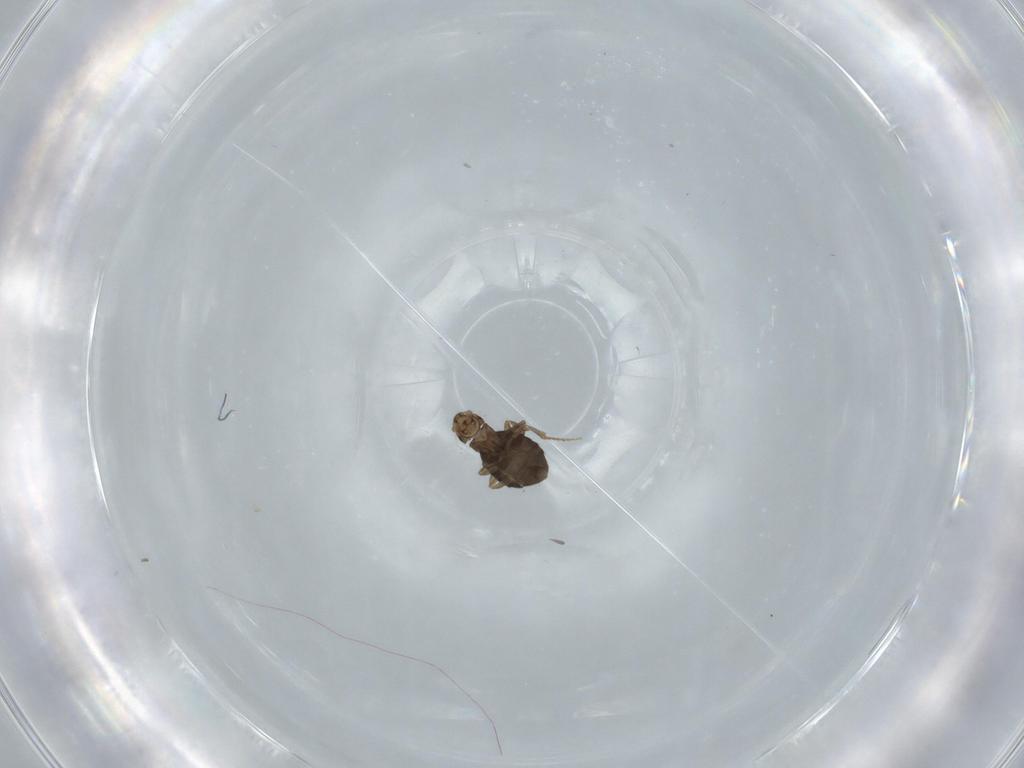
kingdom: Animalia
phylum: Arthropoda
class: Insecta
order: Diptera
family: Phoridae
